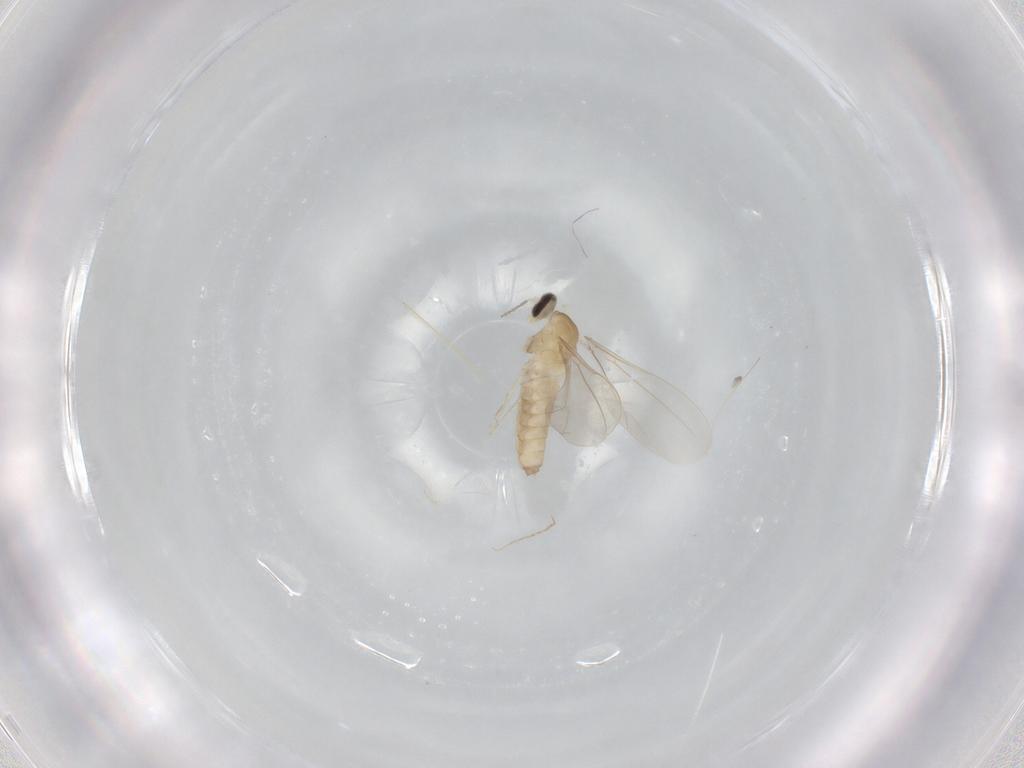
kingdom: Animalia
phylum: Arthropoda
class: Insecta
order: Diptera
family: Cecidomyiidae
